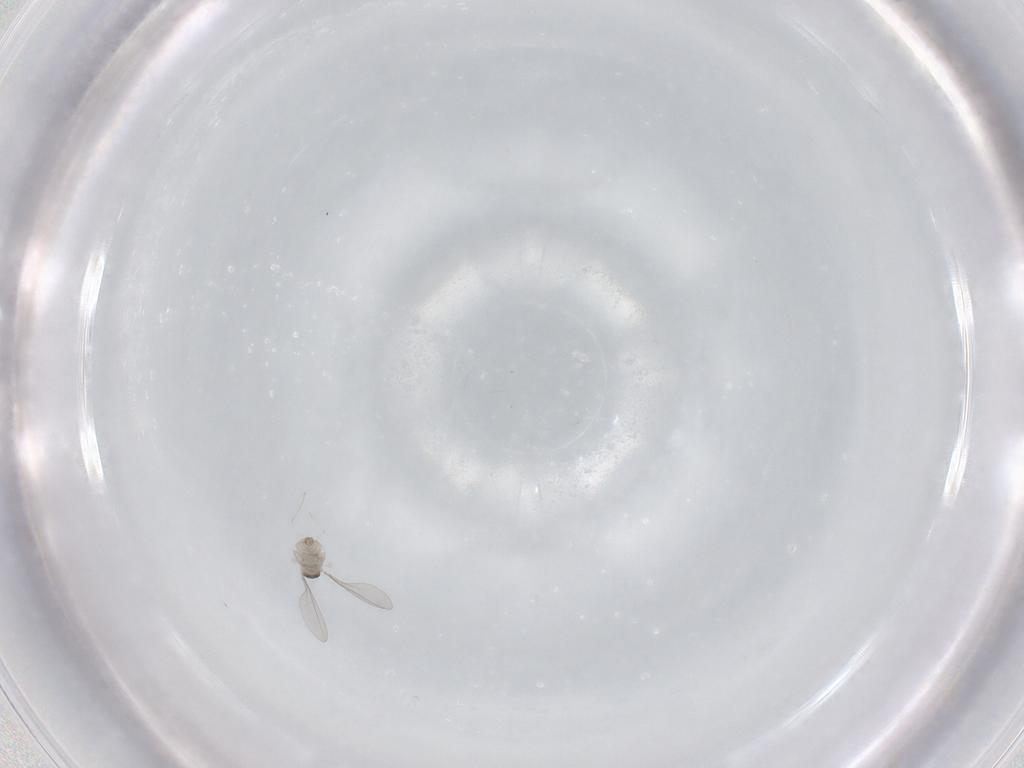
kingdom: Animalia
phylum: Arthropoda
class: Insecta
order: Diptera
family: Cecidomyiidae
